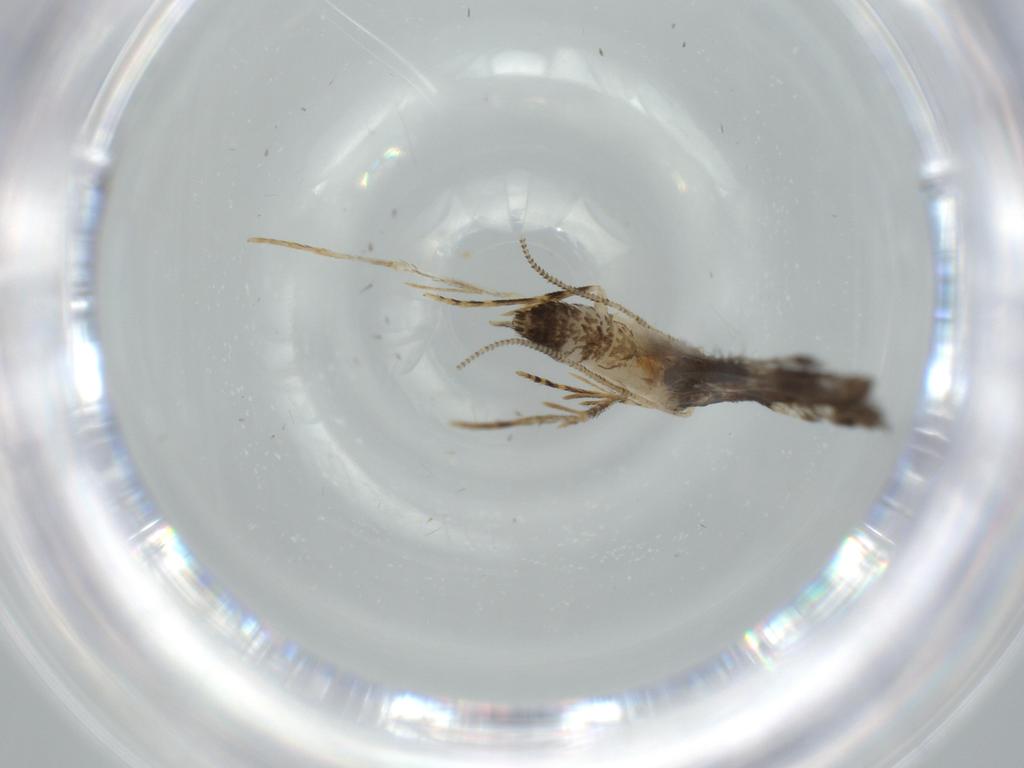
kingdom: Animalia
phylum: Arthropoda
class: Insecta
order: Lepidoptera
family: Tineidae
